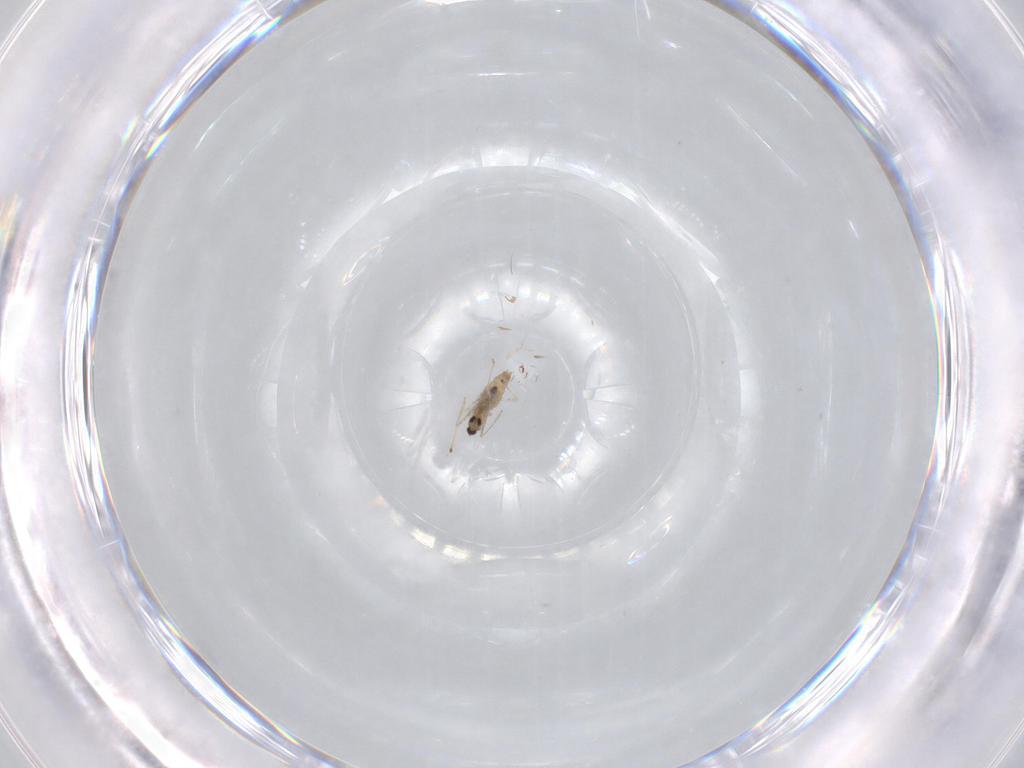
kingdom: Animalia
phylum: Arthropoda
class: Insecta
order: Diptera
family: Cecidomyiidae
